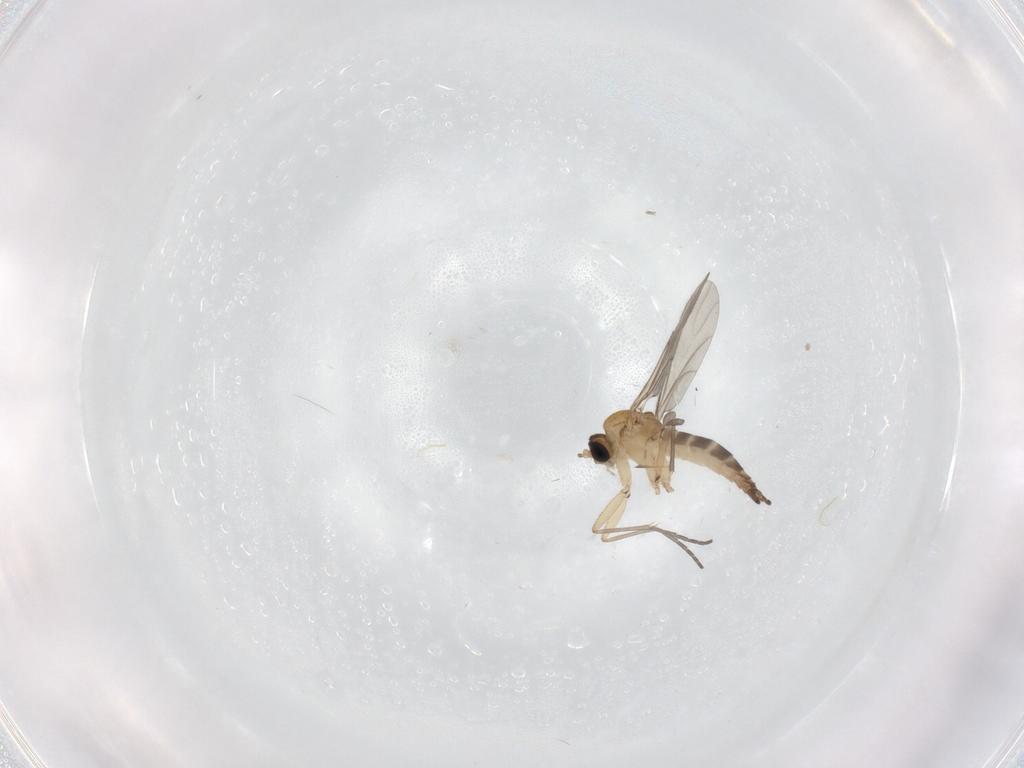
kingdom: Animalia
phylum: Arthropoda
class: Insecta
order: Diptera
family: Phoridae
